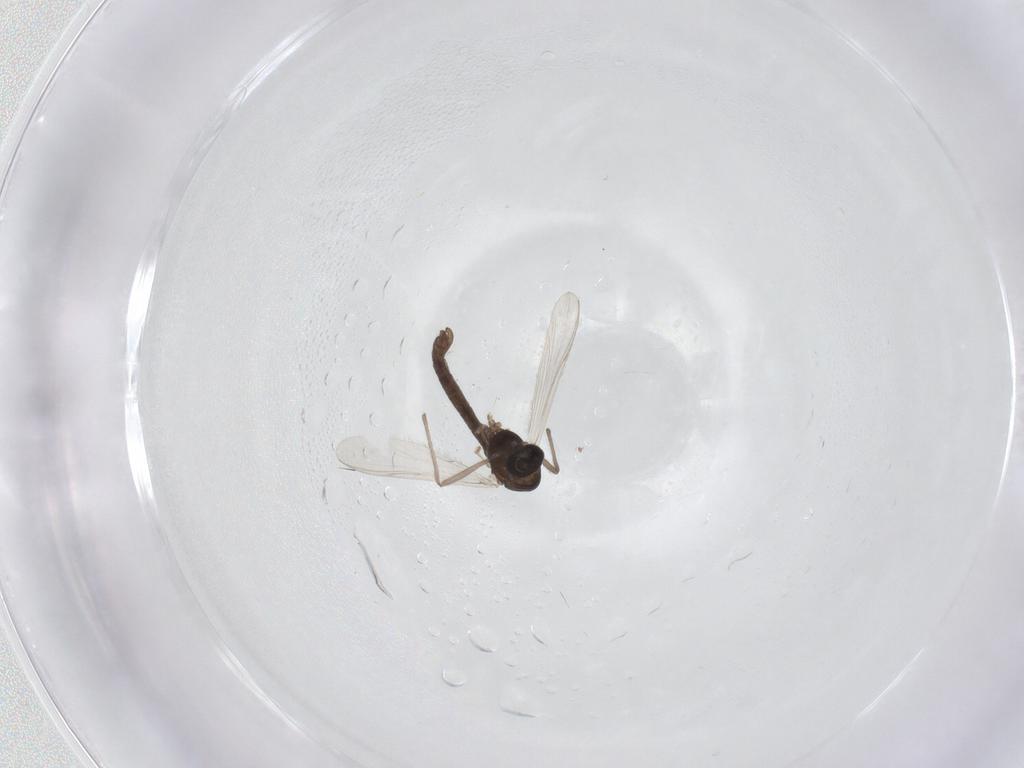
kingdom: Animalia
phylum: Arthropoda
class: Insecta
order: Diptera
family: Chironomidae
